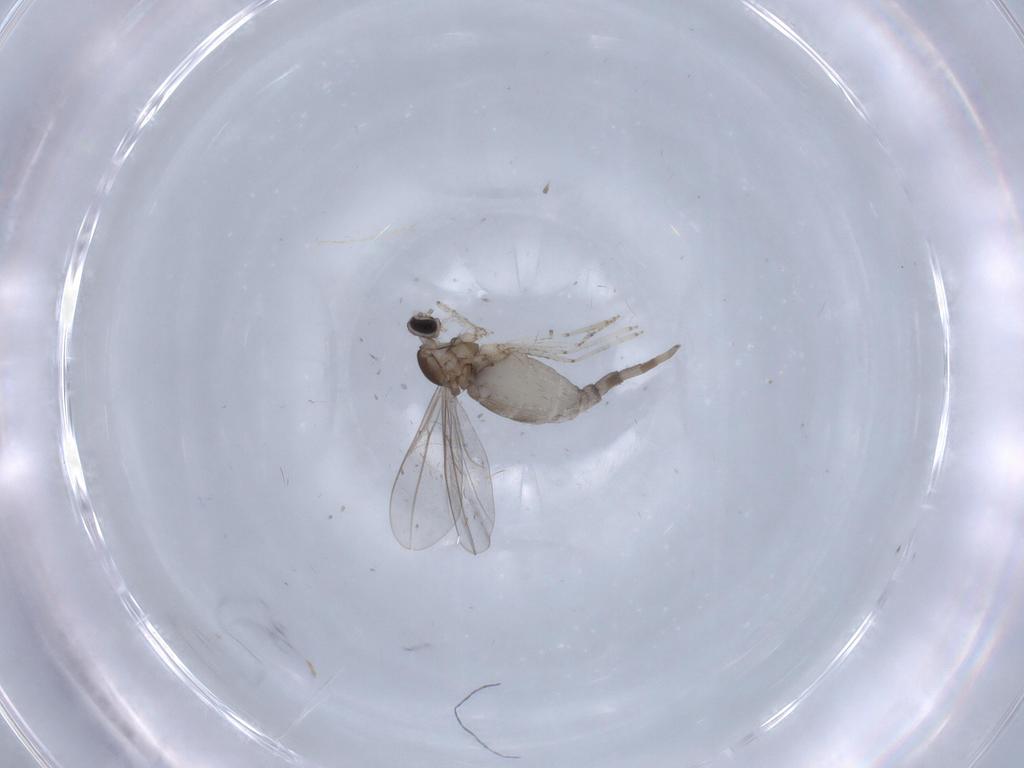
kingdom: Animalia
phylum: Arthropoda
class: Insecta
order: Diptera
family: Cecidomyiidae
